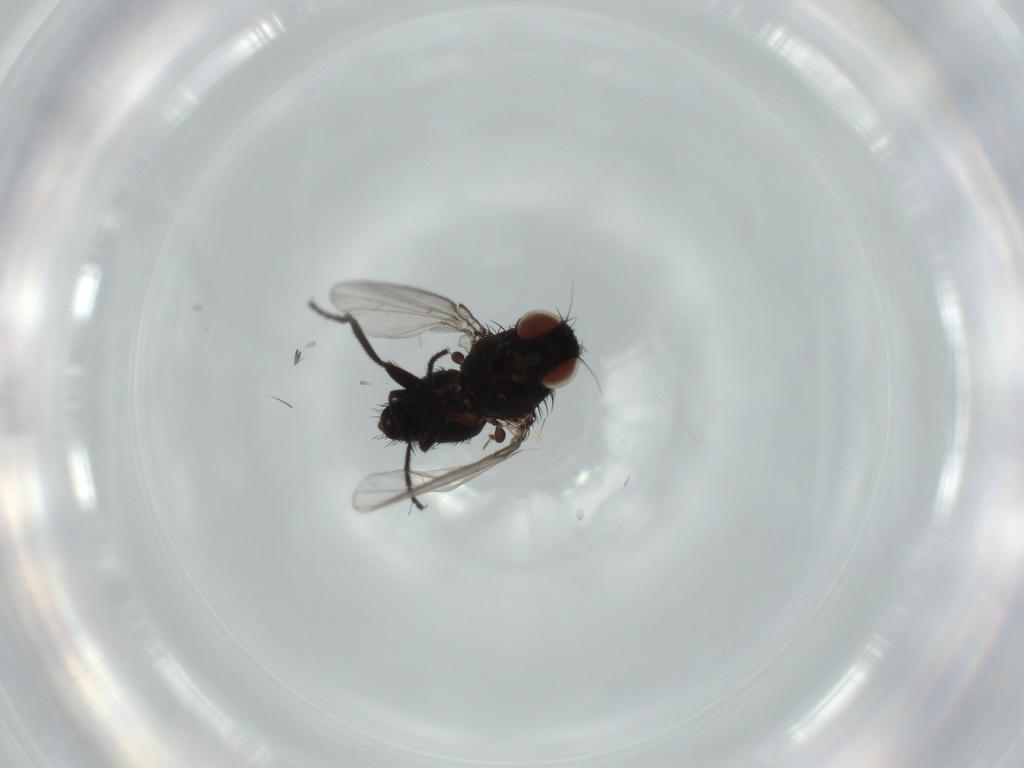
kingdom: Animalia
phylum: Arthropoda
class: Insecta
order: Diptera
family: Milichiidae
